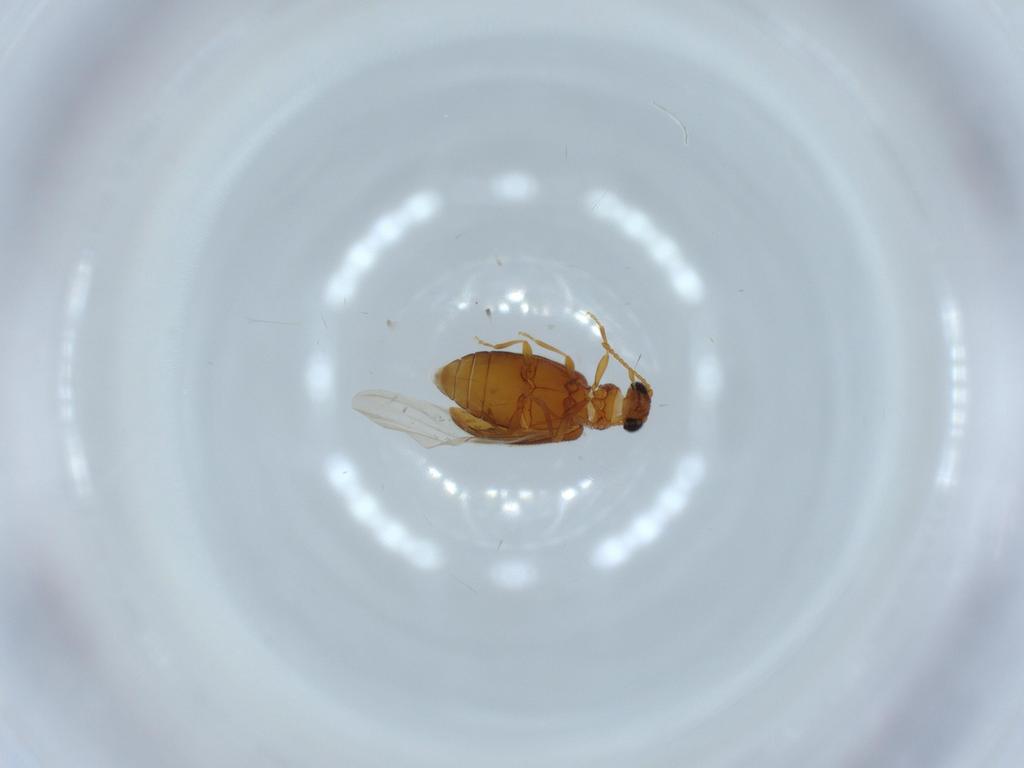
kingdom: Animalia
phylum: Arthropoda
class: Insecta
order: Coleoptera
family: Aderidae
